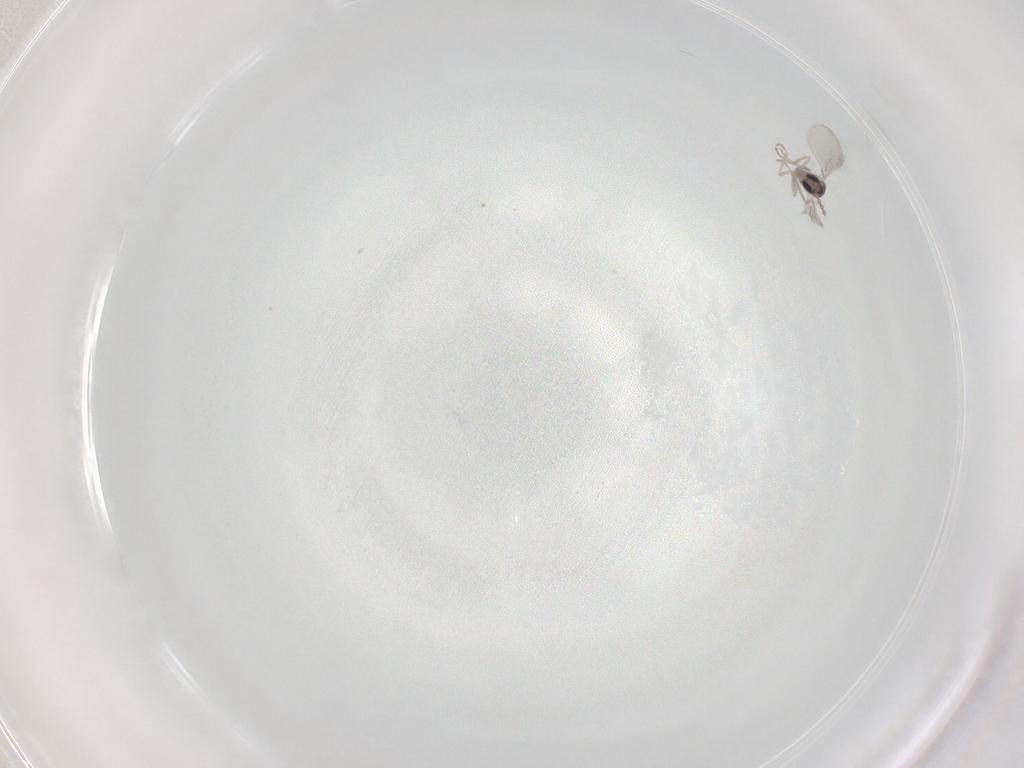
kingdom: Animalia
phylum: Arthropoda
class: Insecta
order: Diptera
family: Cecidomyiidae
